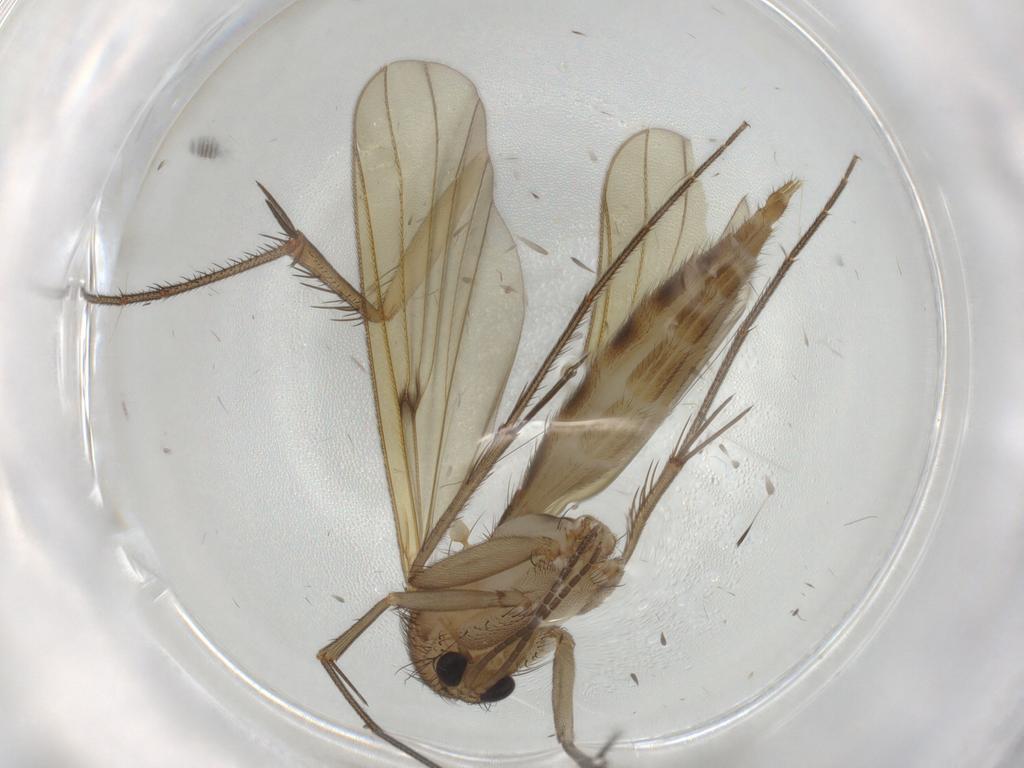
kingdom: Animalia
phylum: Arthropoda
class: Insecta
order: Diptera
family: Mycetophilidae
